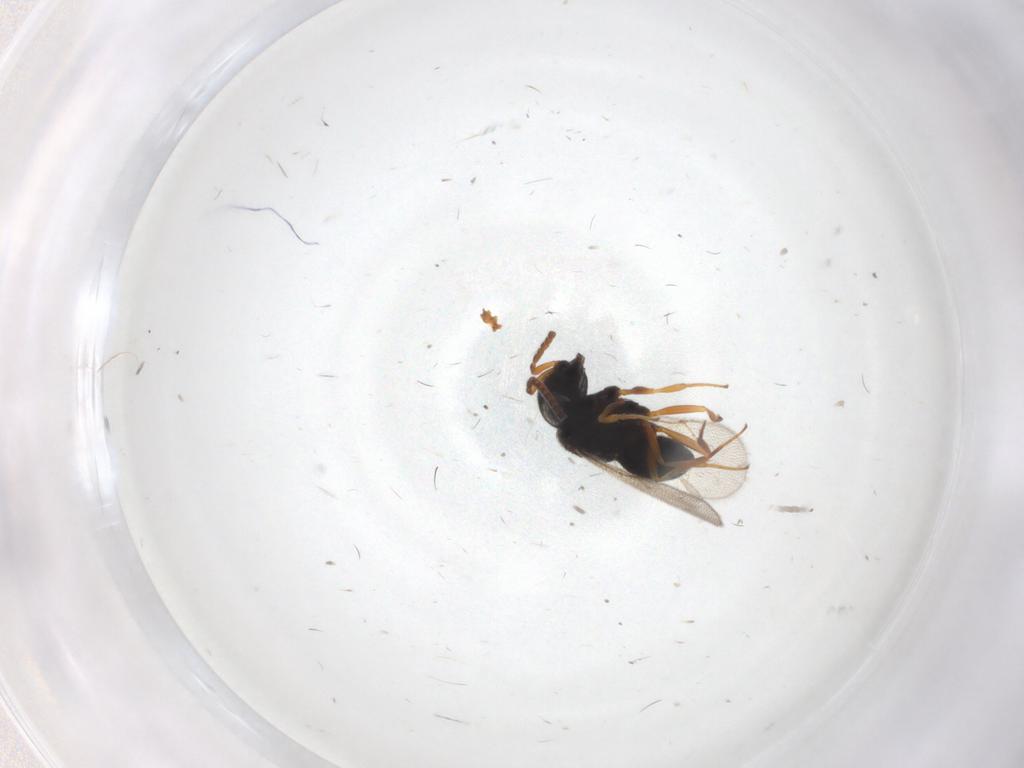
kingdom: Animalia
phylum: Arthropoda
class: Insecta
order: Hymenoptera
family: Scelionidae
